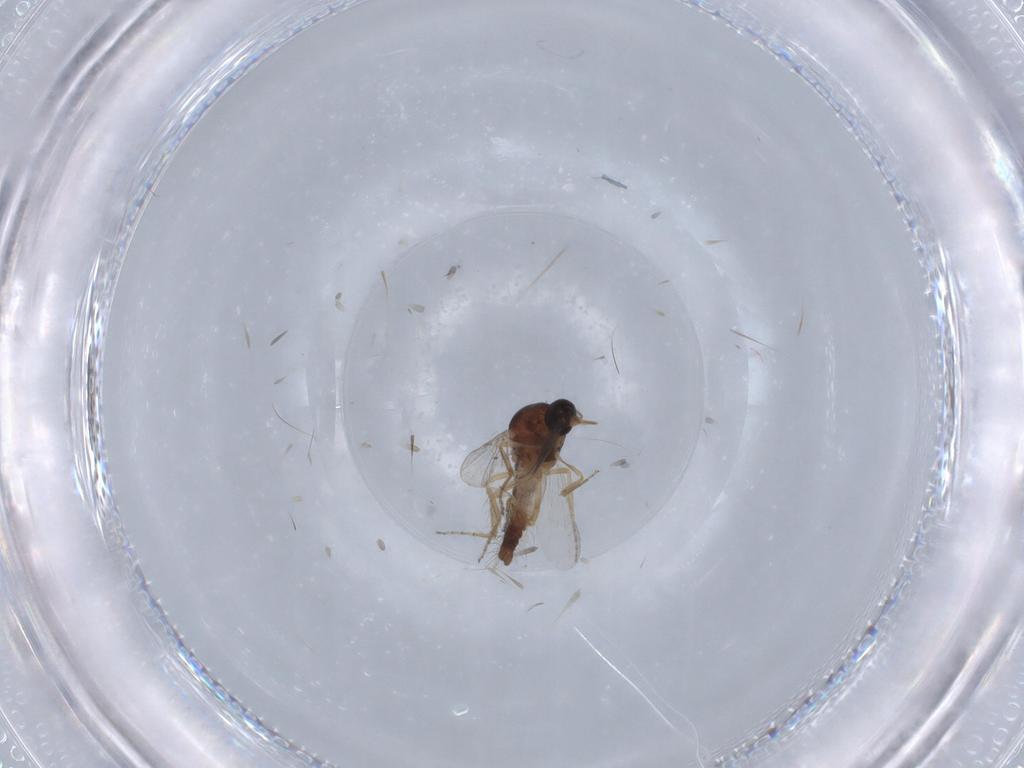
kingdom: Animalia
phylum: Arthropoda
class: Insecta
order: Diptera
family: Ceratopogonidae
